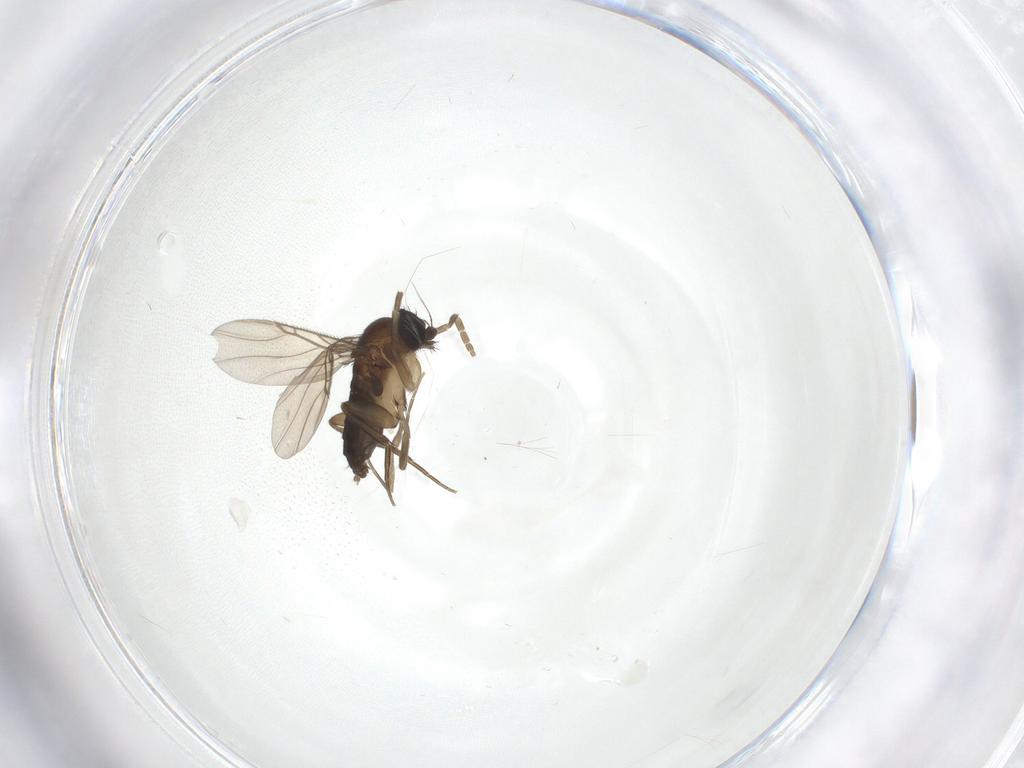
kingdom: Animalia
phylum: Arthropoda
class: Insecta
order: Diptera
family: Phoridae
